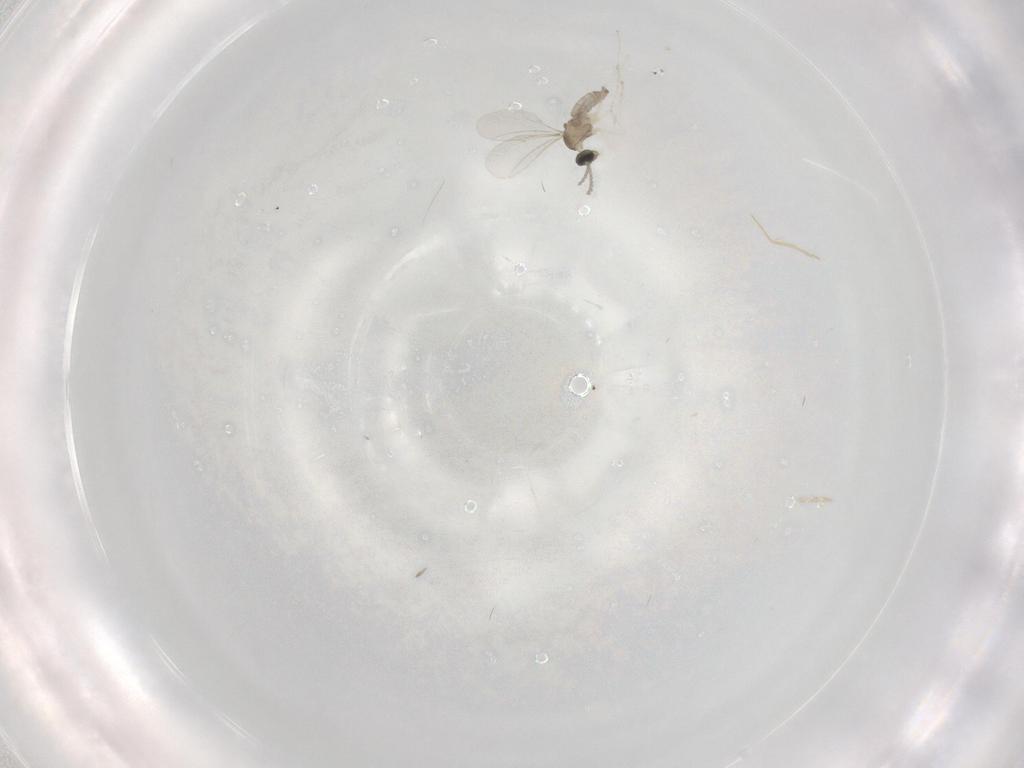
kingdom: Animalia
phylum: Arthropoda
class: Insecta
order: Diptera
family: Cecidomyiidae
